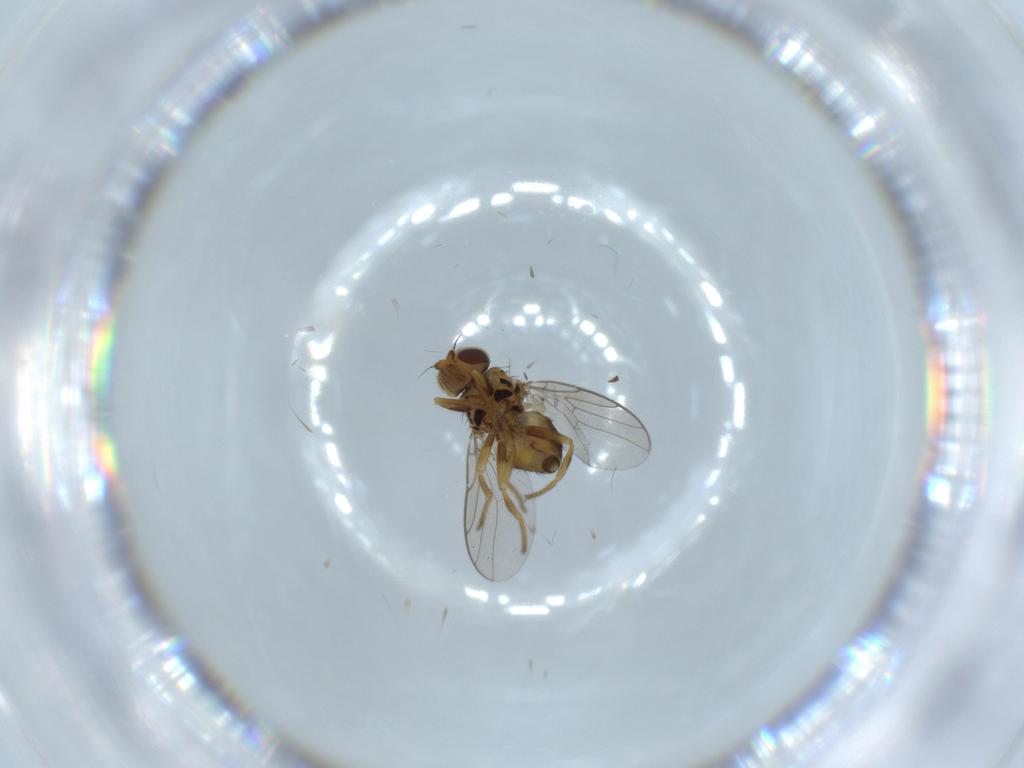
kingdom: Animalia
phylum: Arthropoda
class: Insecta
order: Diptera
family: Chloropidae
